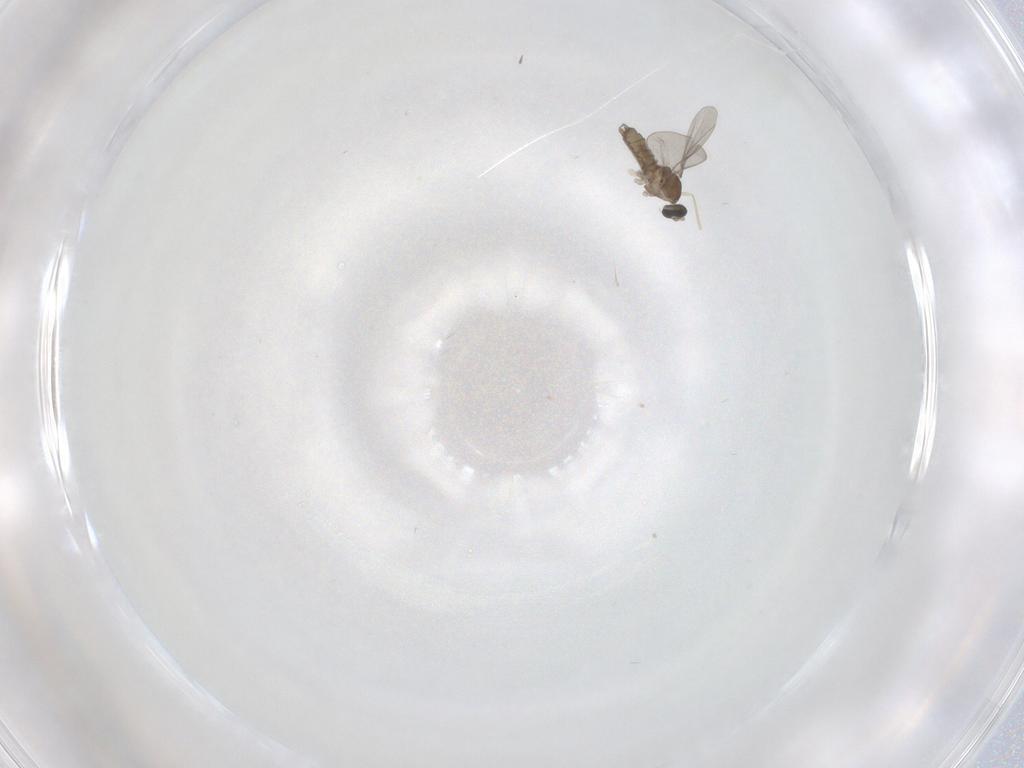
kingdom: Animalia
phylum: Arthropoda
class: Insecta
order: Diptera
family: Cecidomyiidae
